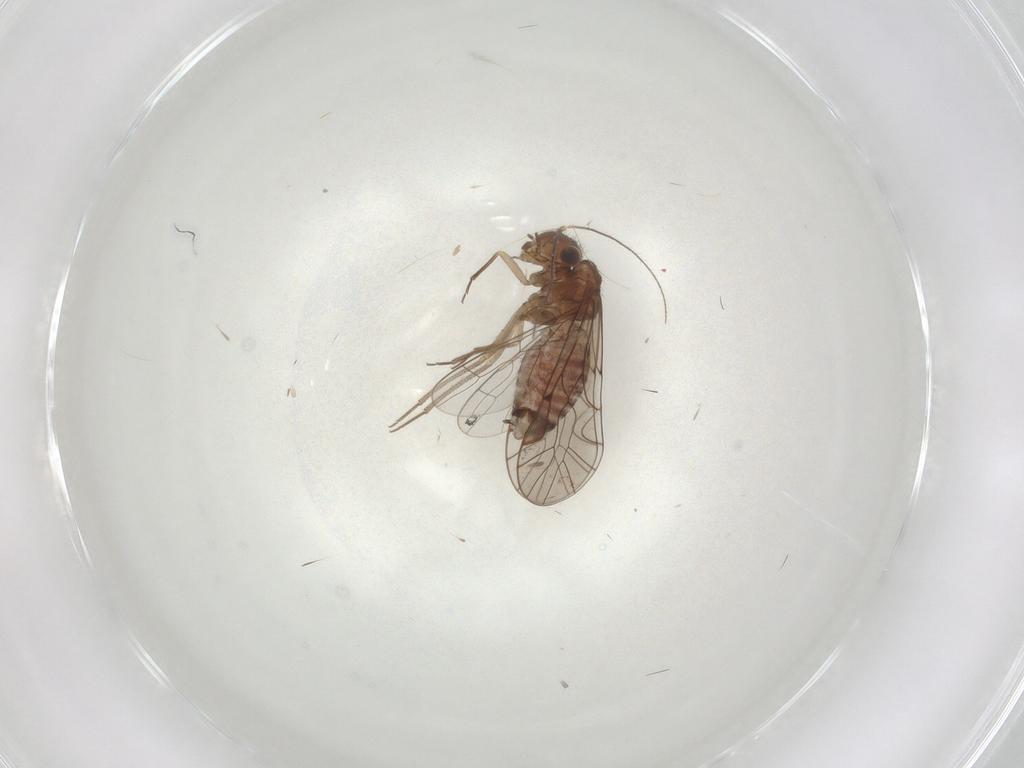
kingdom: Animalia
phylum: Arthropoda
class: Insecta
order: Psocodea
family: Lachesillidae
